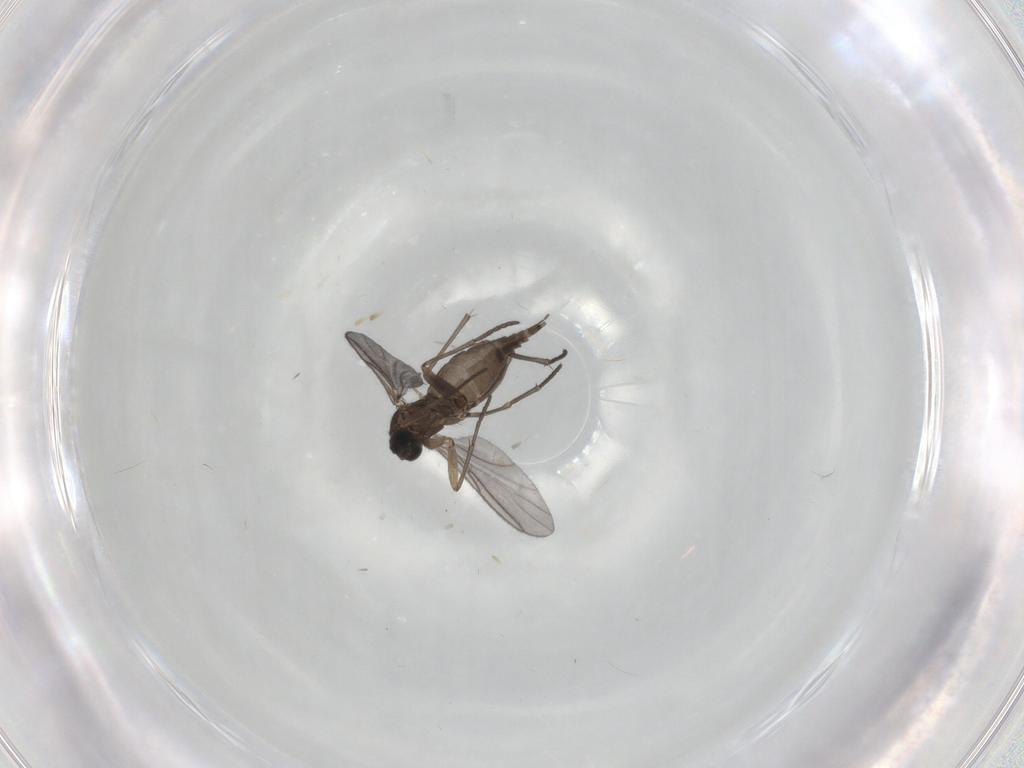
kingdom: Animalia
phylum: Arthropoda
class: Insecta
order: Diptera
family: Sciaridae
